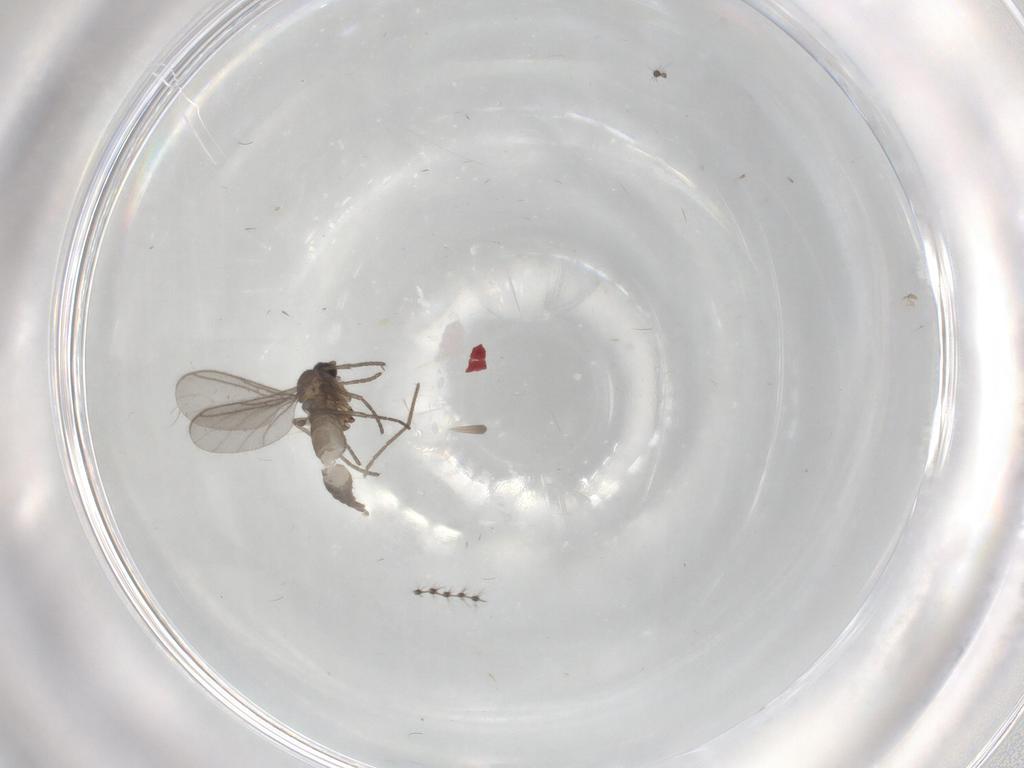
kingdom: Animalia
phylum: Arthropoda
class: Insecta
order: Diptera
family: Sciaridae
